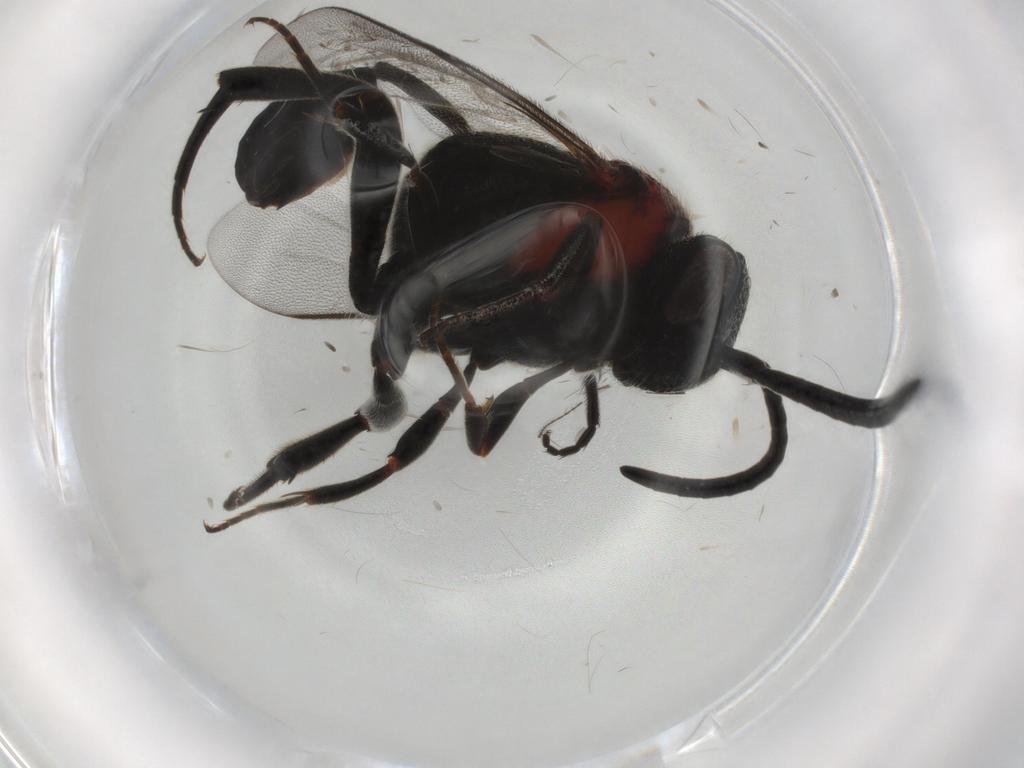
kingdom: Animalia
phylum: Arthropoda
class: Insecta
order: Hymenoptera
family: Evaniidae
